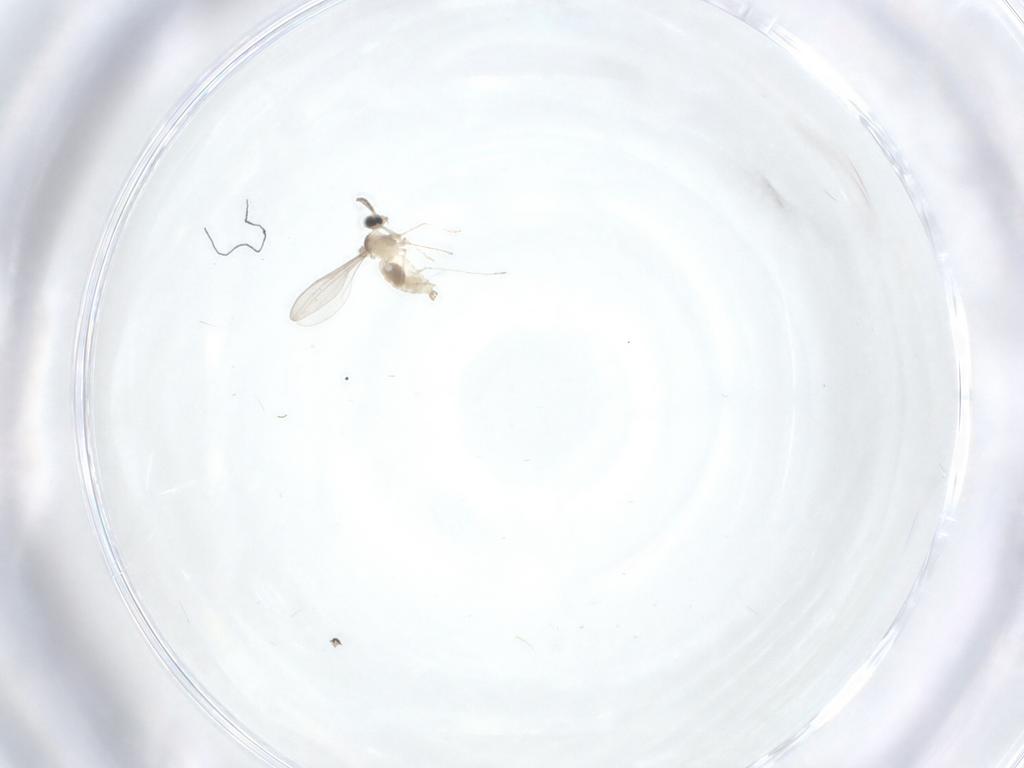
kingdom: Animalia
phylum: Arthropoda
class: Insecta
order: Diptera
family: Cecidomyiidae
